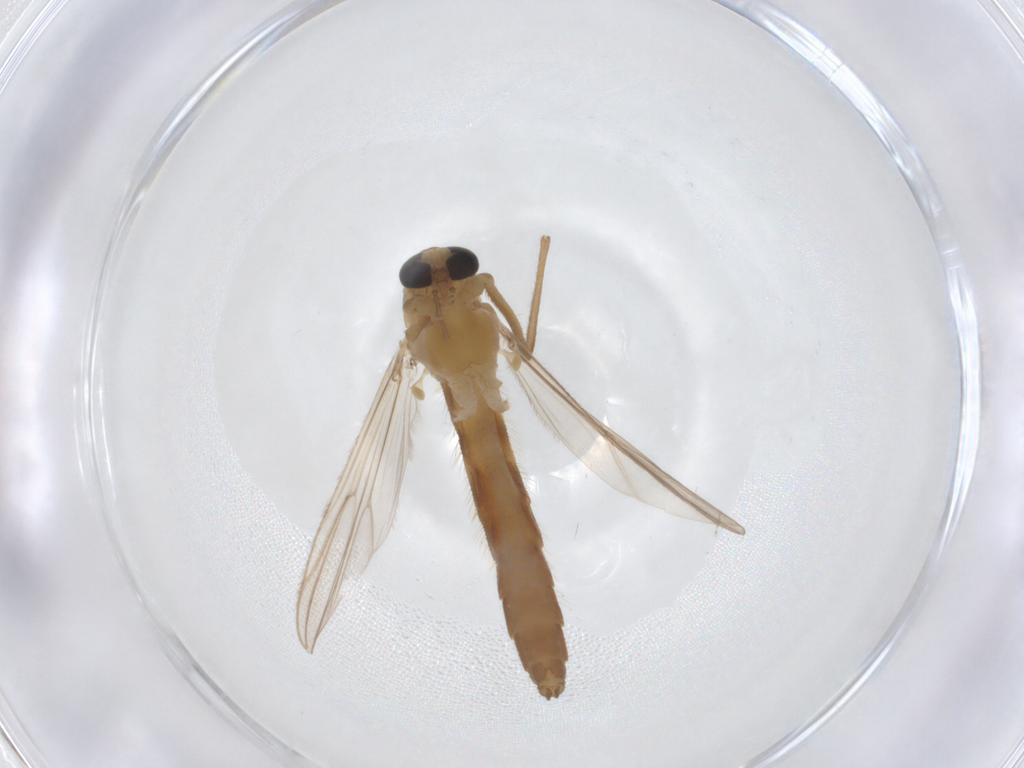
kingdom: Animalia
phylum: Arthropoda
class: Insecta
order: Diptera
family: Chironomidae
